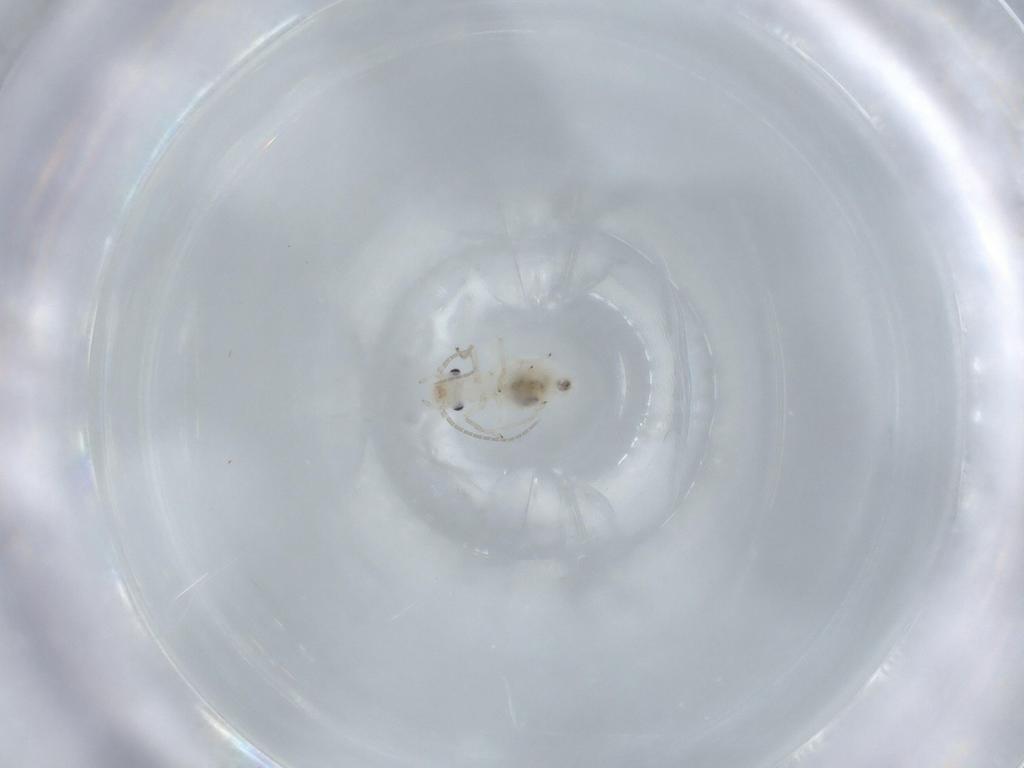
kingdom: Animalia
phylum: Arthropoda
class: Insecta
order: Psocodea
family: Caeciliusidae
